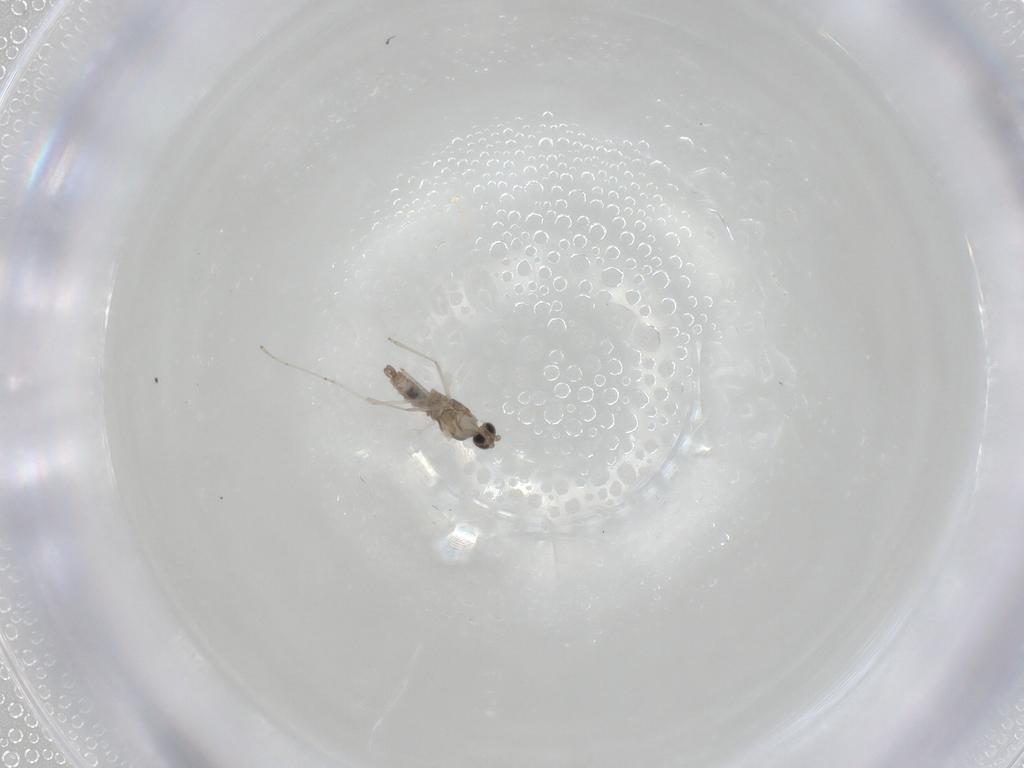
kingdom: Animalia
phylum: Arthropoda
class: Insecta
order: Diptera
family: Cecidomyiidae
